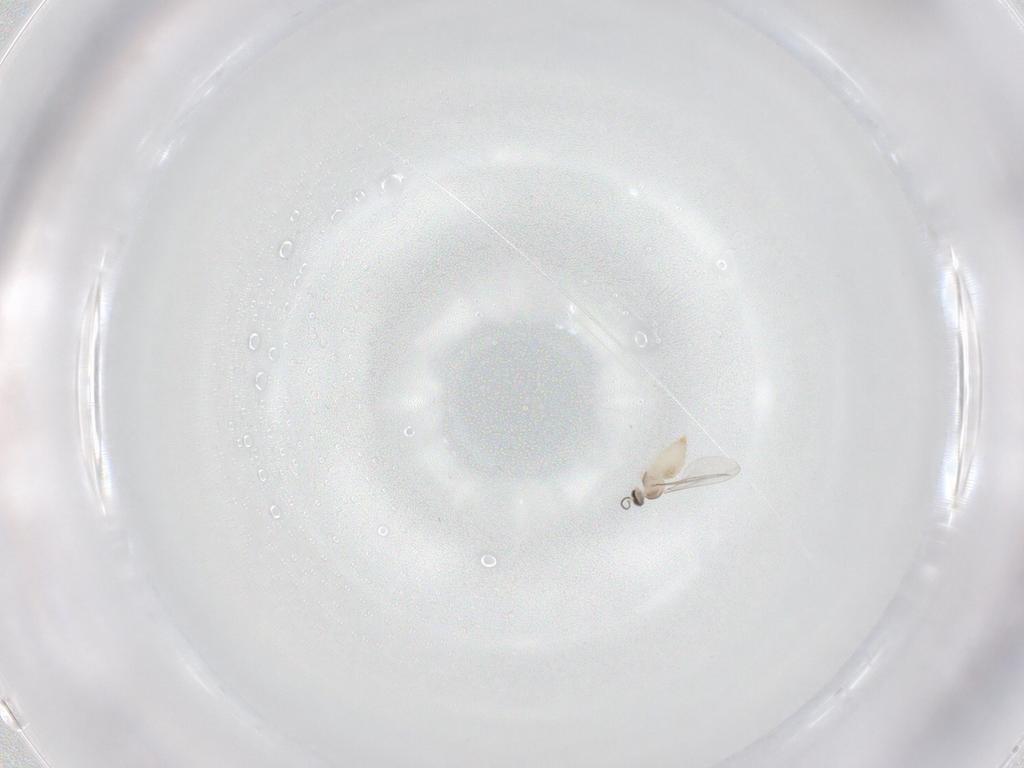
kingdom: Animalia
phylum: Arthropoda
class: Insecta
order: Diptera
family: Cecidomyiidae
